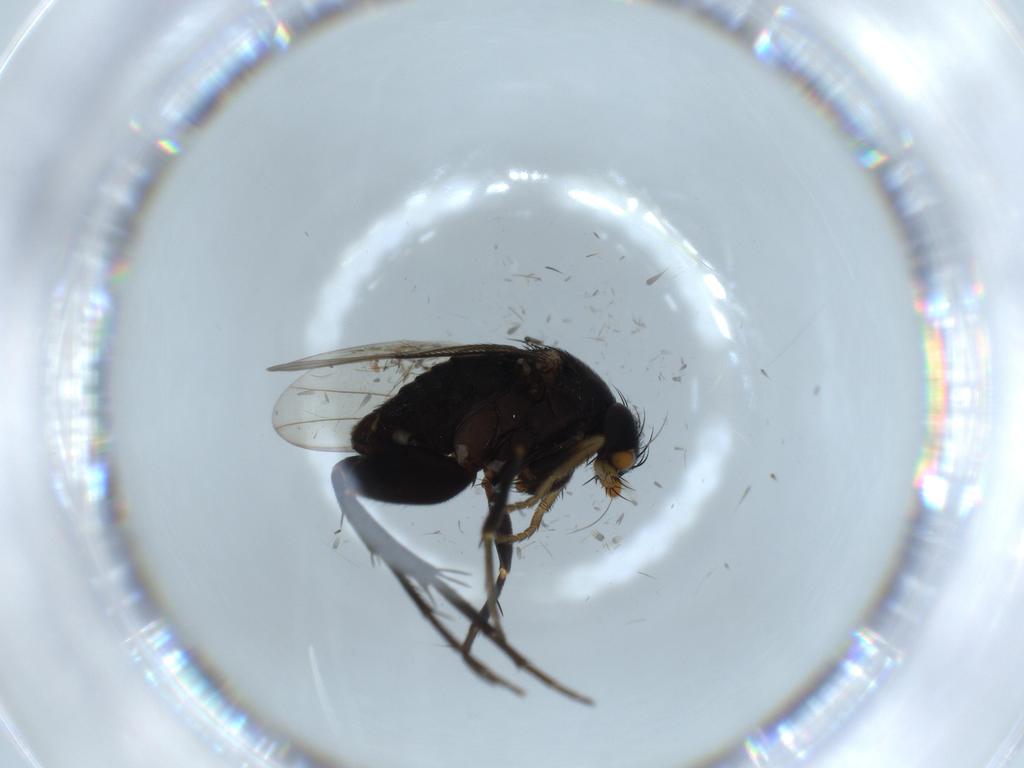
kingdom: Animalia
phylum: Arthropoda
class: Insecta
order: Diptera
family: Phoridae
